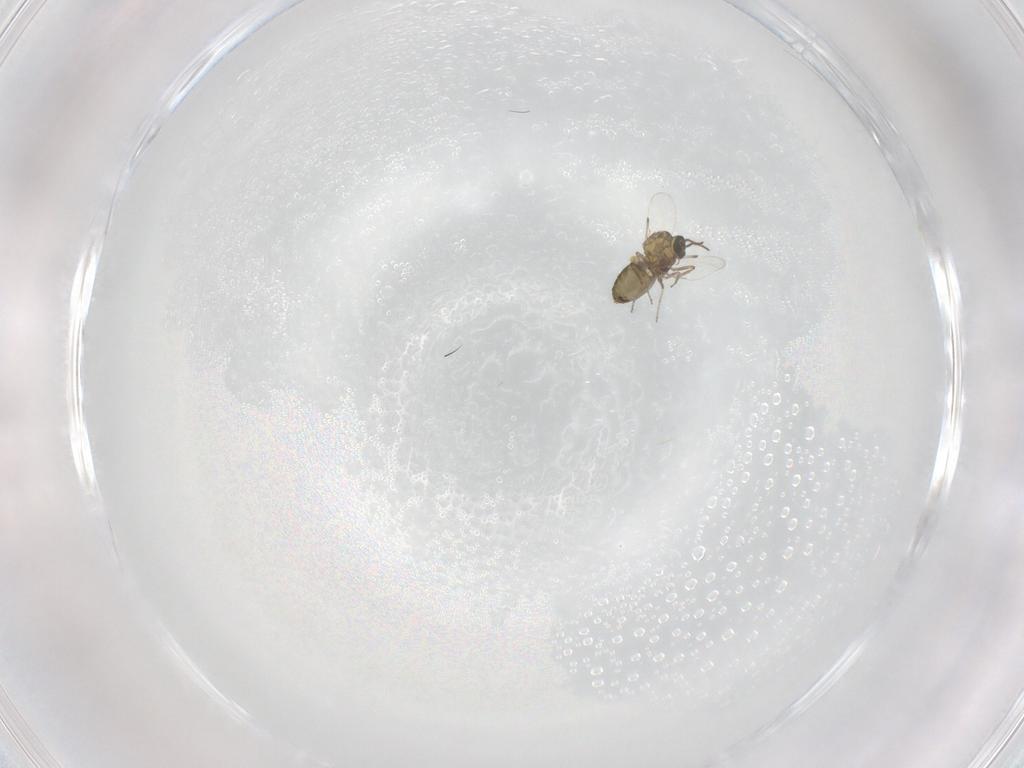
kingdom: Animalia
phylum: Arthropoda
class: Insecta
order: Diptera
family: Ceratopogonidae
